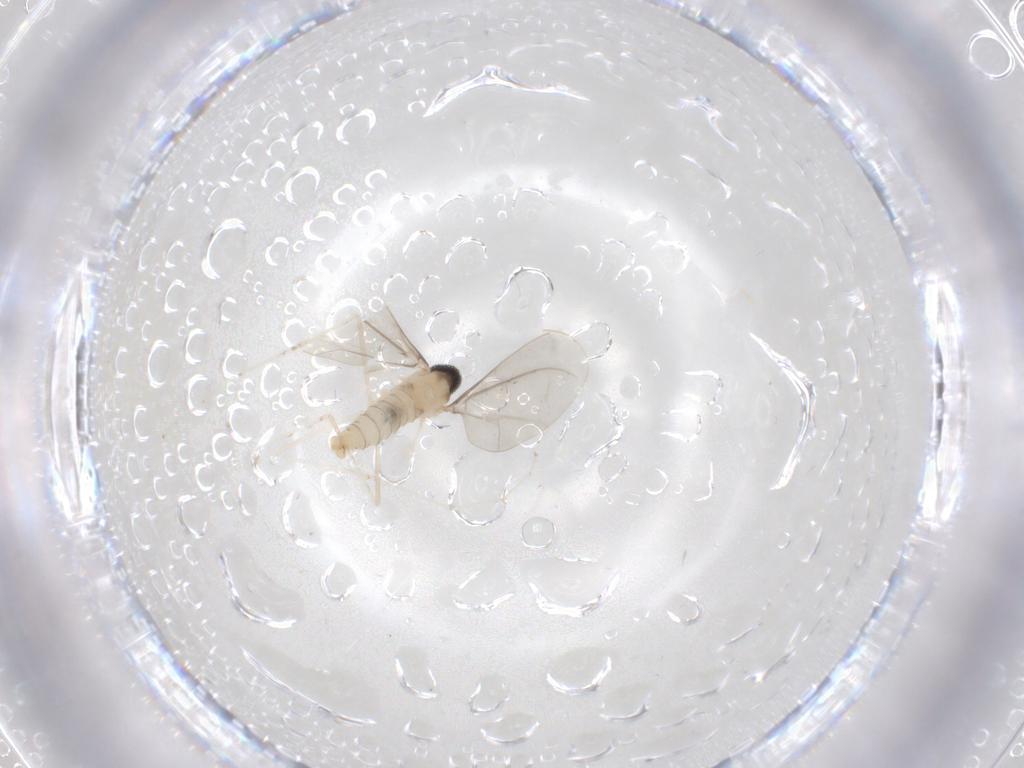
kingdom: Animalia
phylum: Arthropoda
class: Insecta
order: Diptera
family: Cecidomyiidae
